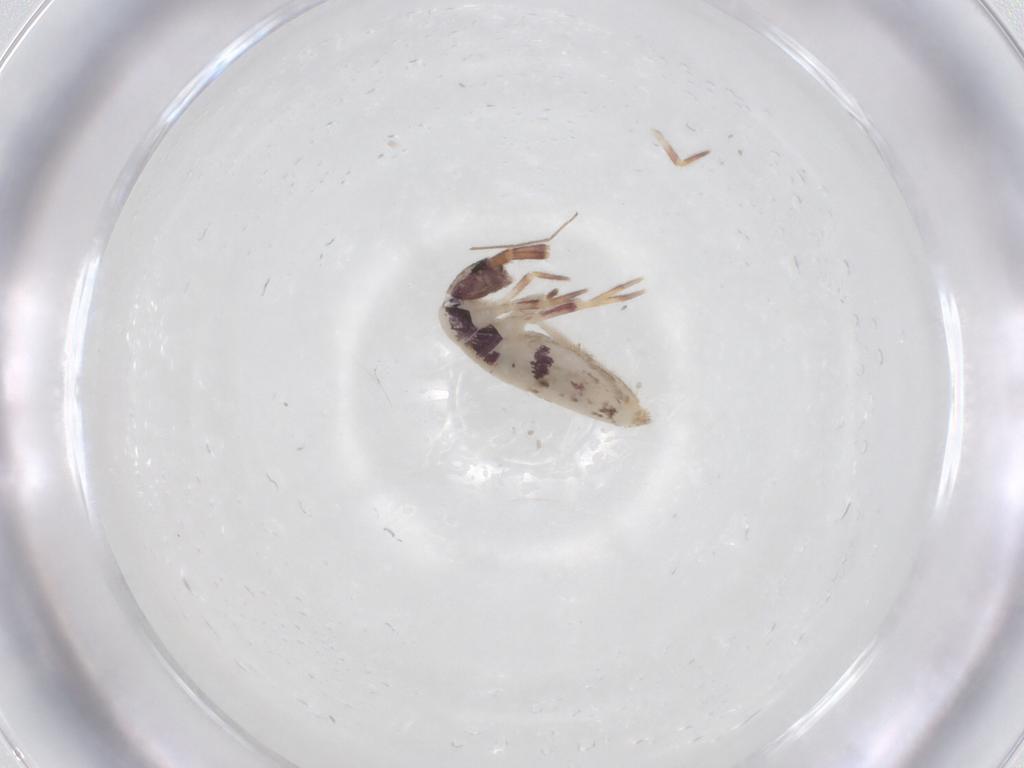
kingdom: Animalia
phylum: Arthropoda
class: Collembola
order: Entomobryomorpha
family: Entomobryidae
